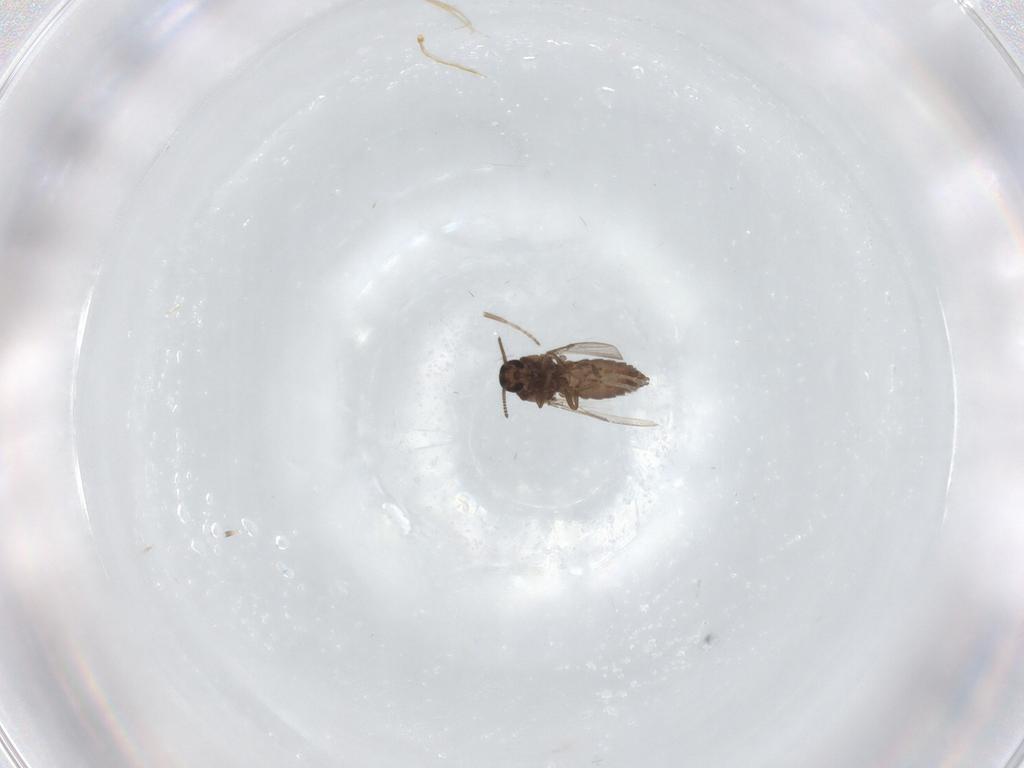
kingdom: Animalia
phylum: Arthropoda
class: Insecta
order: Diptera
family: Ceratopogonidae
